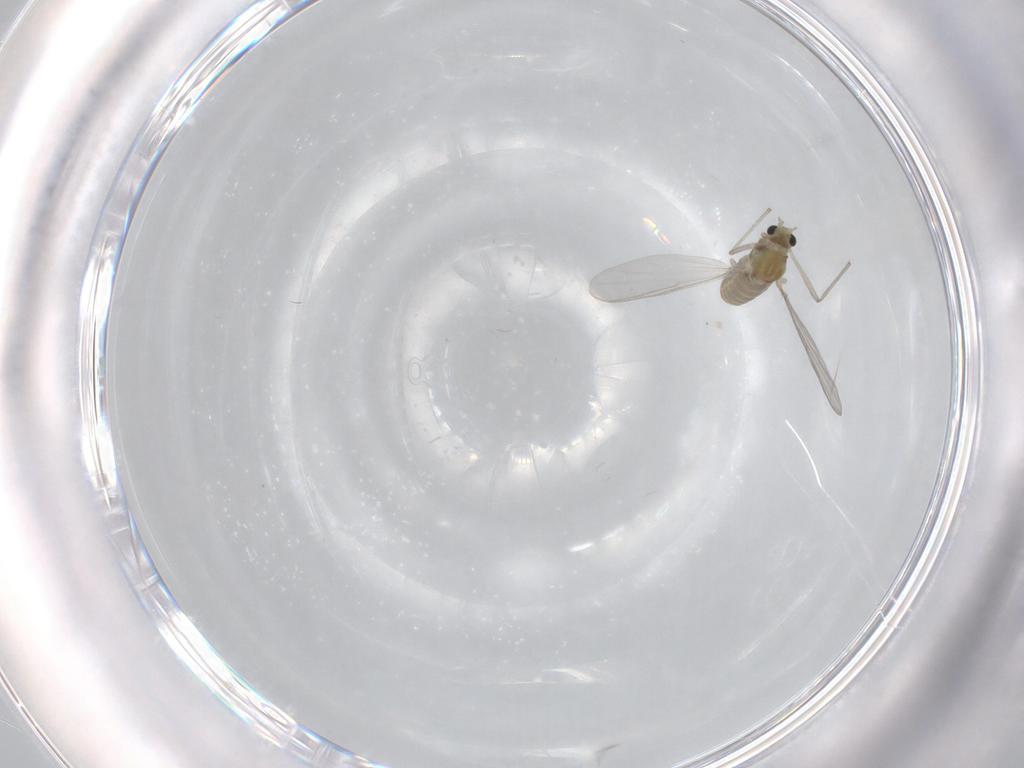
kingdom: Animalia
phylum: Arthropoda
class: Insecta
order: Diptera
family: Chironomidae
